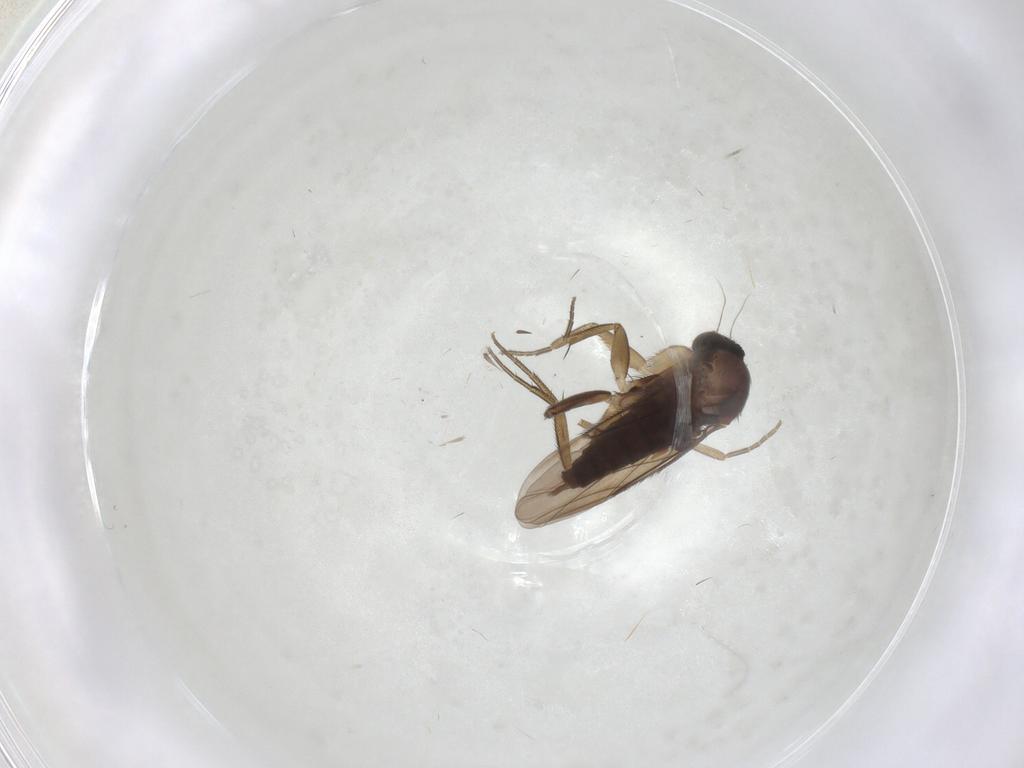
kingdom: Animalia
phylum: Arthropoda
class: Insecta
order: Diptera
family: Phoridae
